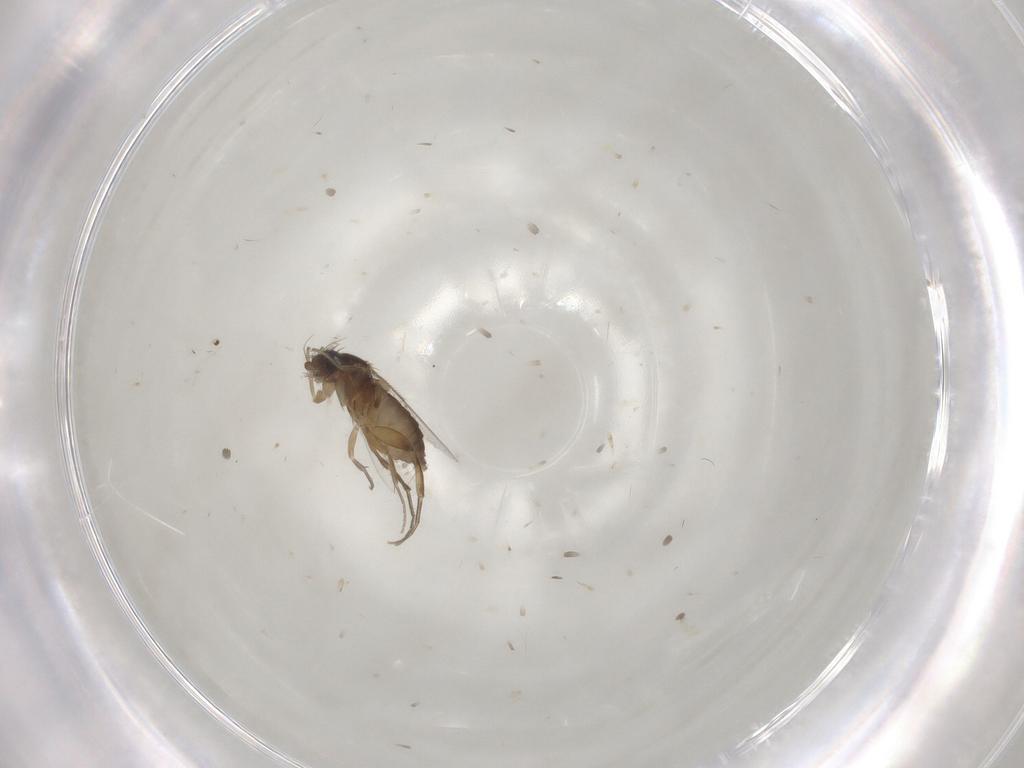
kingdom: Animalia
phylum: Arthropoda
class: Insecta
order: Diptera
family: Phoridae
